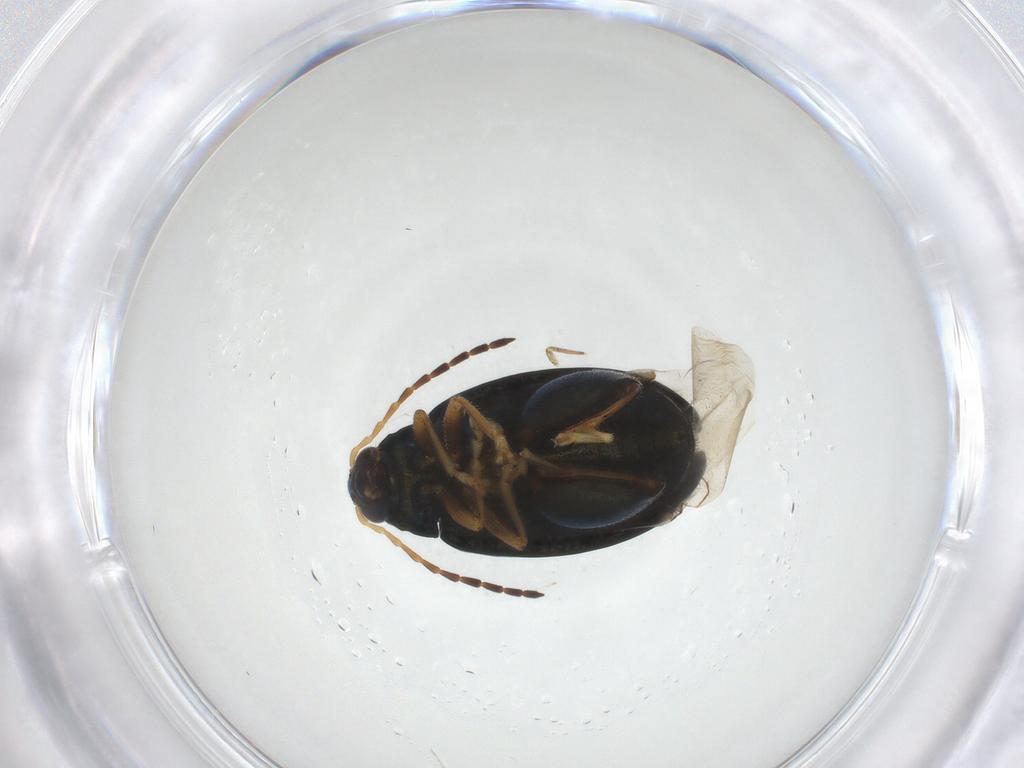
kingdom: Animalia
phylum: Arthropoda
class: Insecta
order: Coleoptera
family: Chrysomelidae
